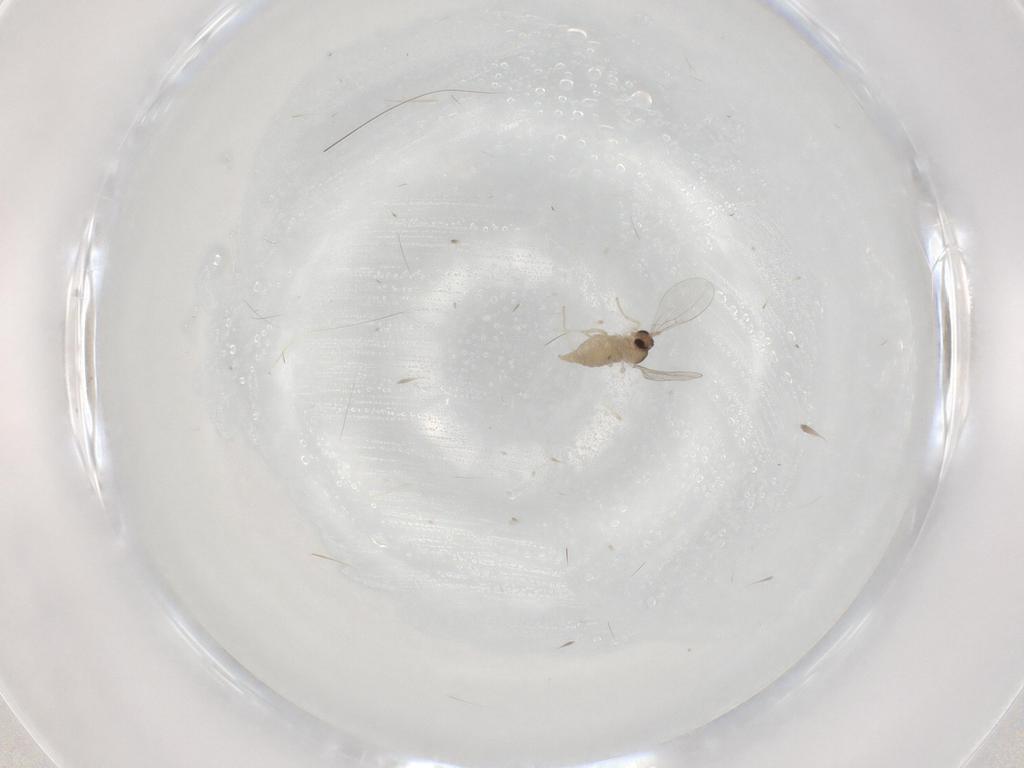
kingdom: Animalia
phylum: Arthropoda
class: Insecta
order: Diptera
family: Cecidomyiidae
